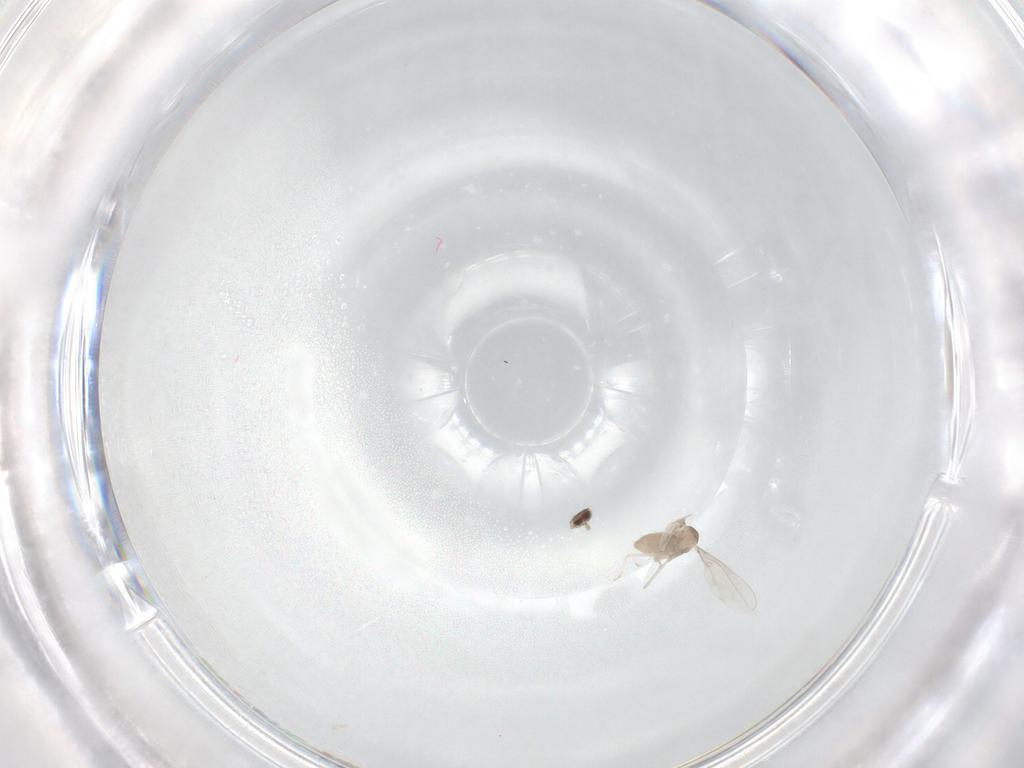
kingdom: Animalia
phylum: Arthropoda
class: Insecta
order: Diptera
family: Cecidomyiidae
